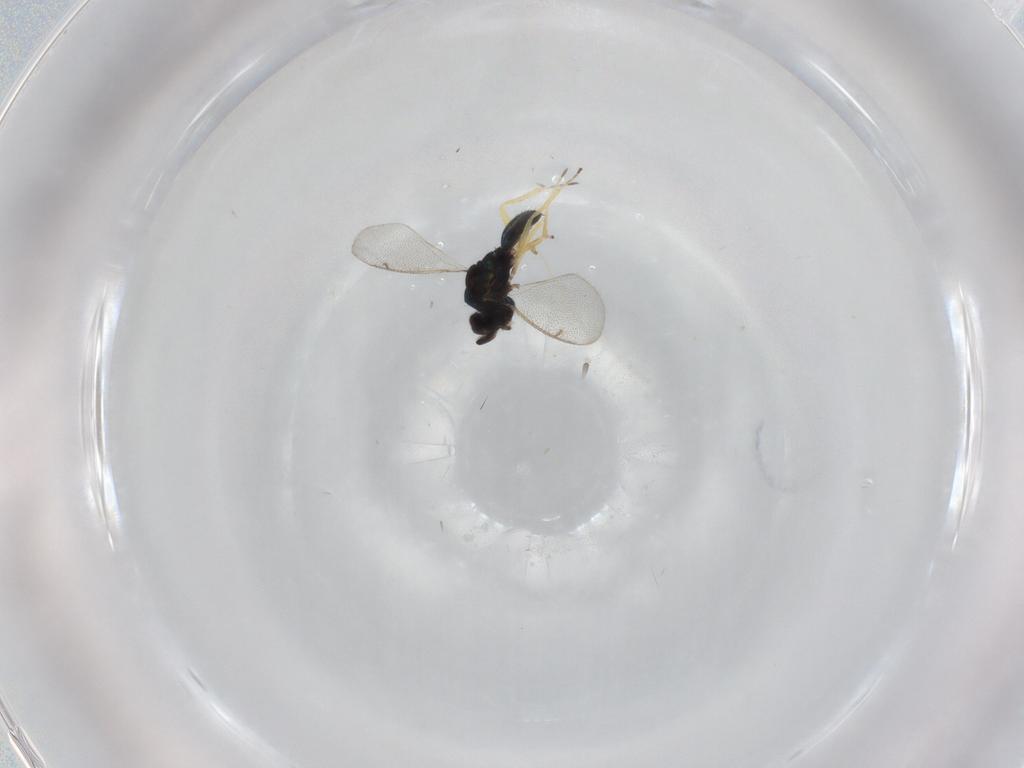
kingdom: Animalia
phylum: Arthropoda
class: Insecta
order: Hymenoptera
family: Eulophidae
